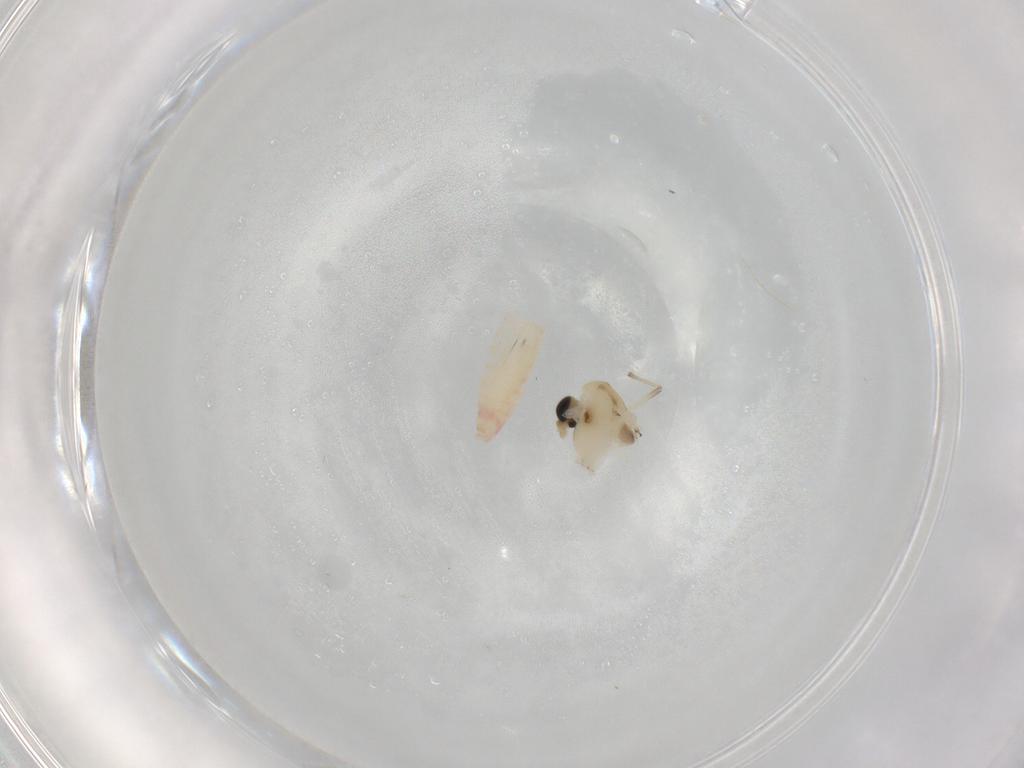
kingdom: Animalia
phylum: Arthropoda
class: Insecta
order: Diptera
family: Chironomidae
